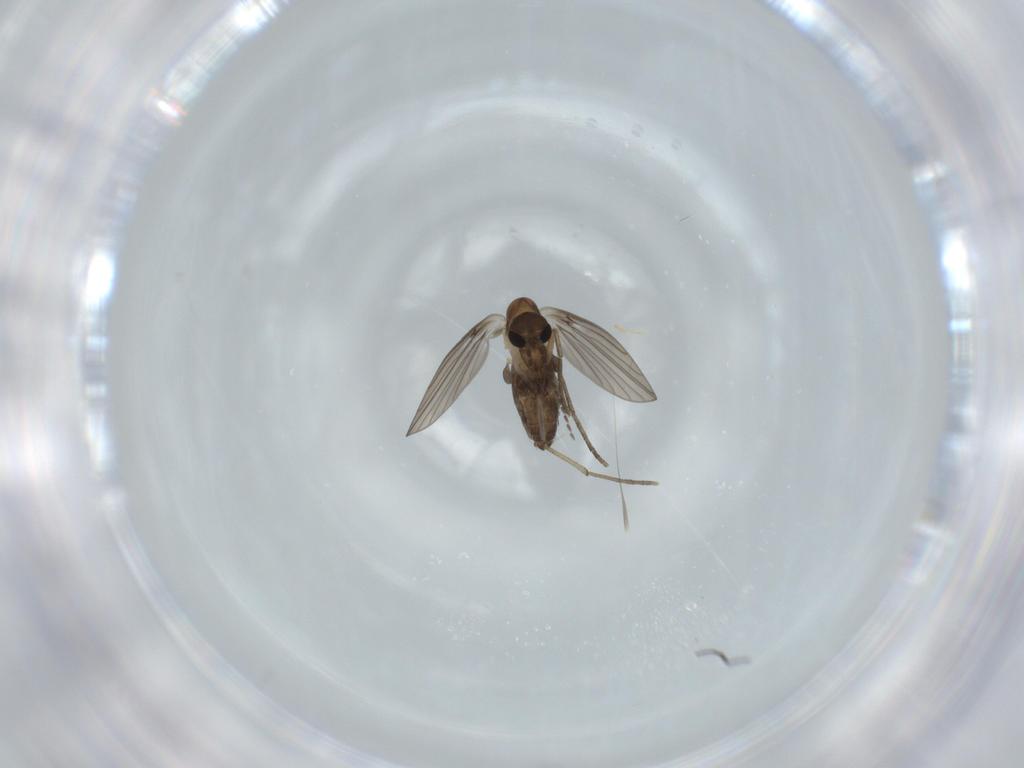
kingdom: Animalia
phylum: Arthropoda
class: Insecta
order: Diptera
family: Psychodidae
